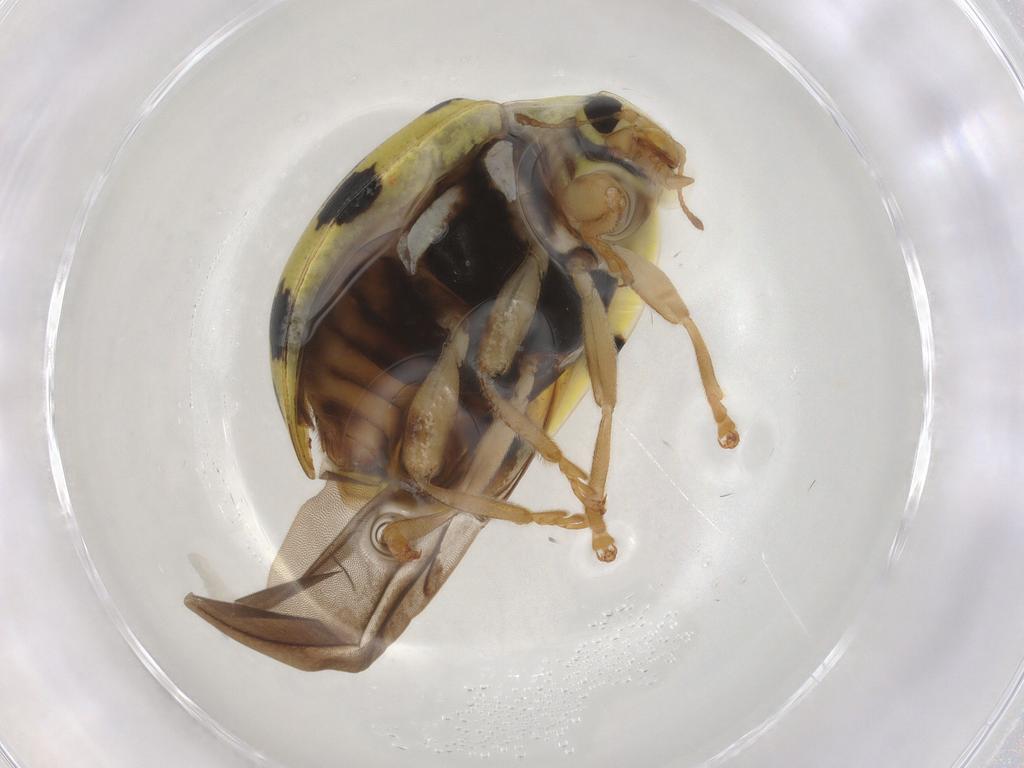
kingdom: Animalia
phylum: Arthropoda
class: Insecta
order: Coleoptera
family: Coccinellidae
